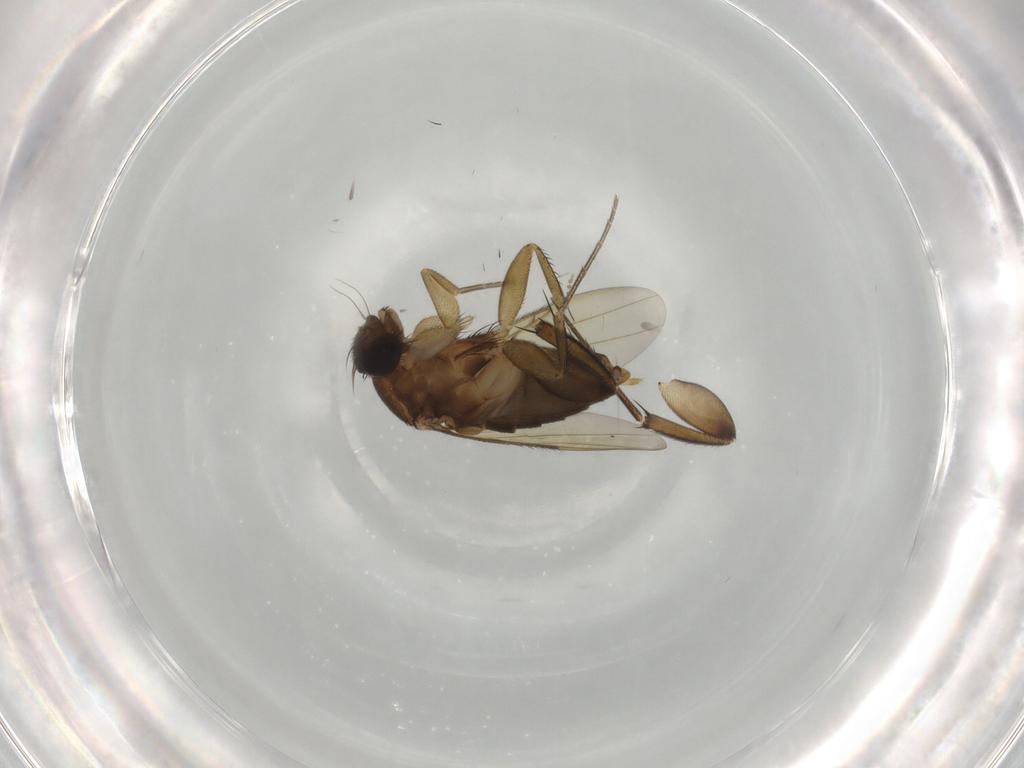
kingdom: Animalia
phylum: Arthropoda
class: Insecta
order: Diptera
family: Phoridae
